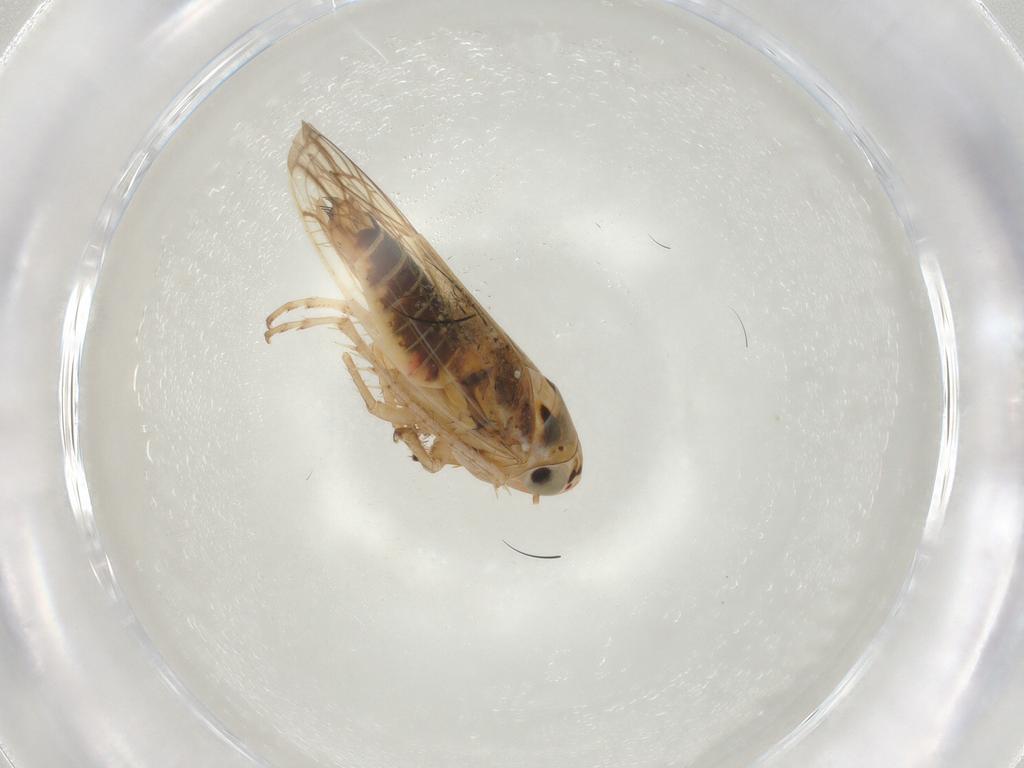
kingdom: Animalia
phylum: Arthropoda
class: Insecta
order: Hemiptera
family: Cicadellidae
